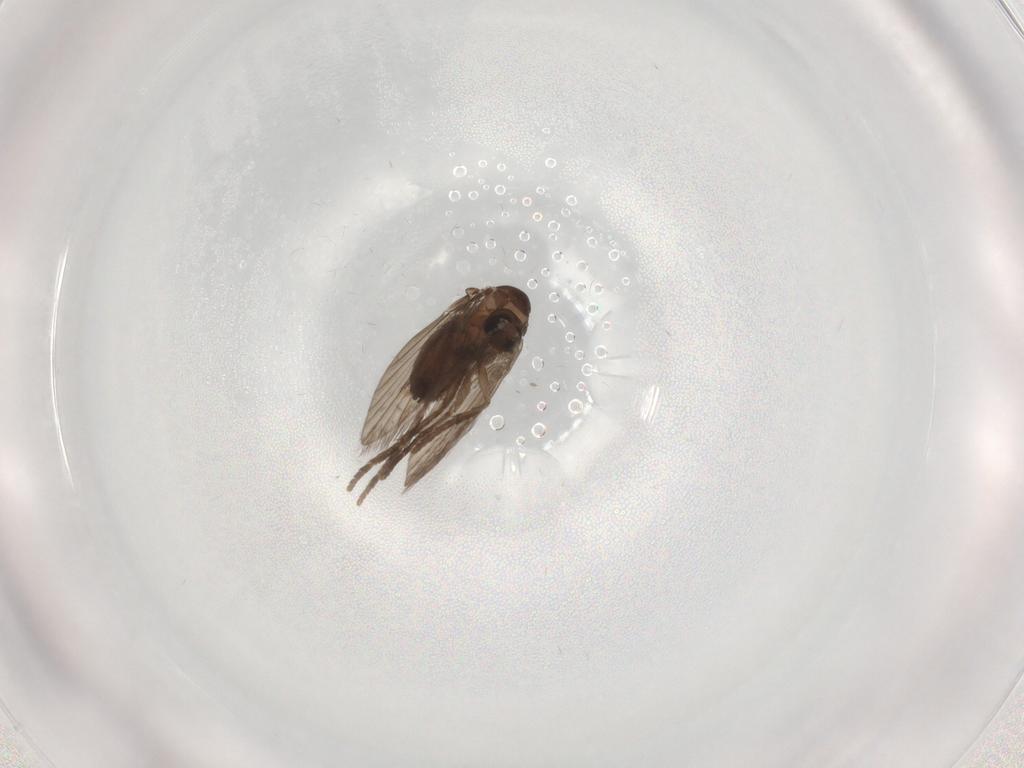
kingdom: Animalia
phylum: Arthropoda
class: Insecta
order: Diptera
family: Psychodidae
